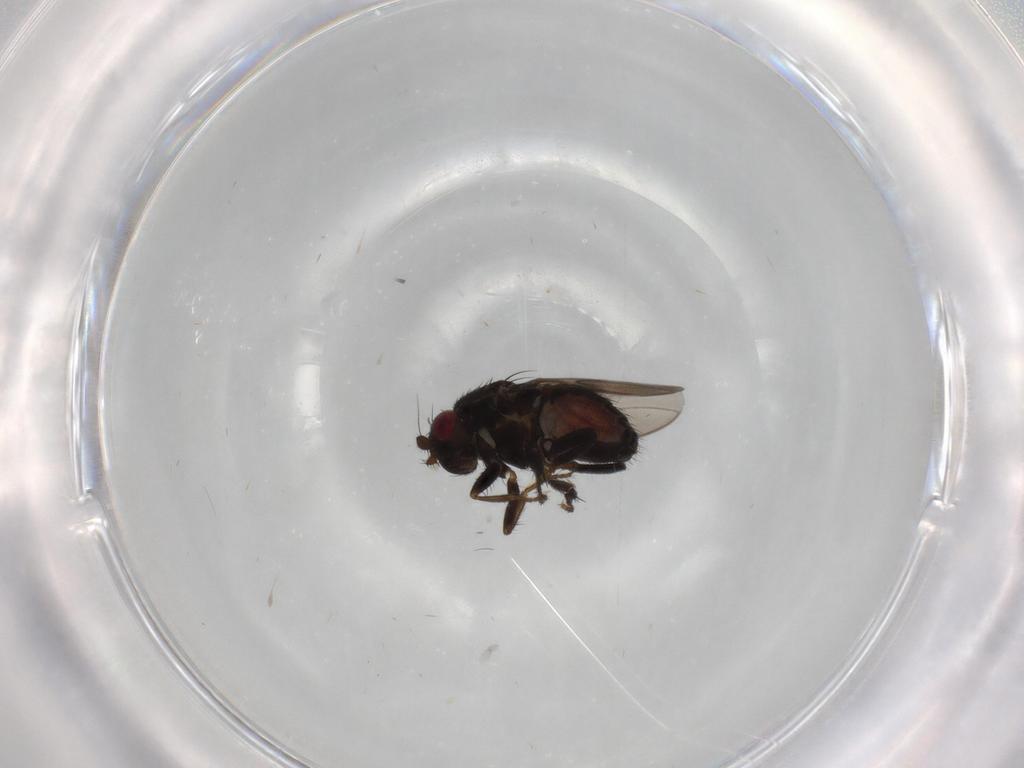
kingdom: Animalia
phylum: Arthropoda
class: Insecta
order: Diptera
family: Sphaeroceridae
